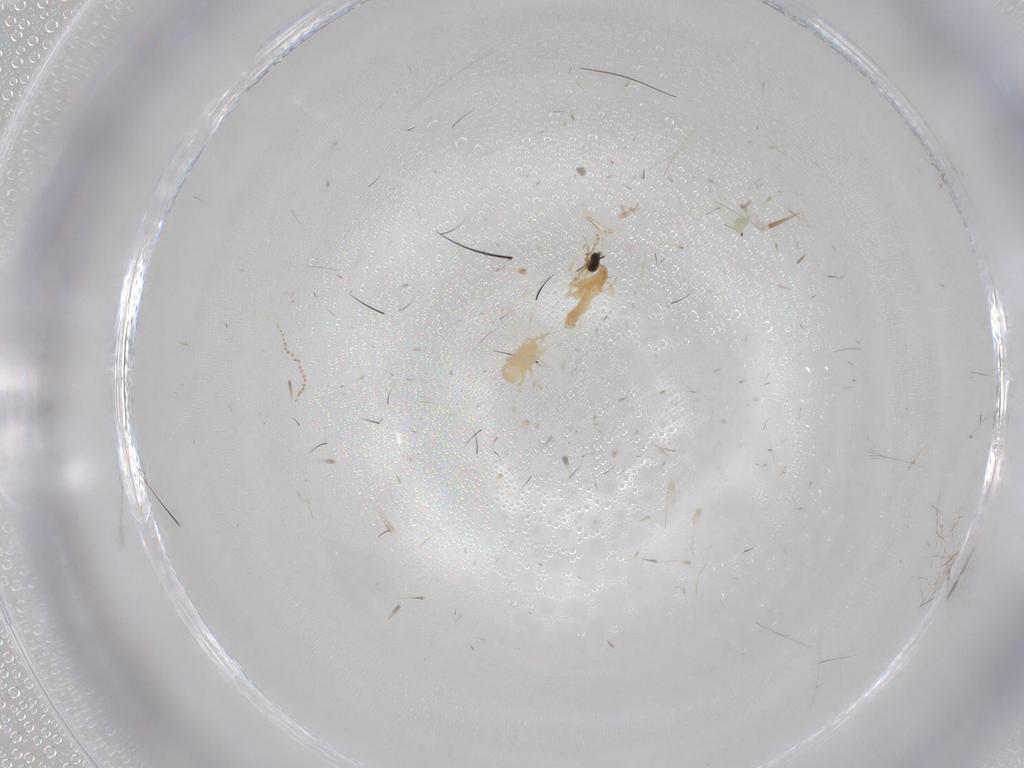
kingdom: Animalia
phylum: Arthropoda
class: Insecta
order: Diptera
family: Cecidomyiidae
